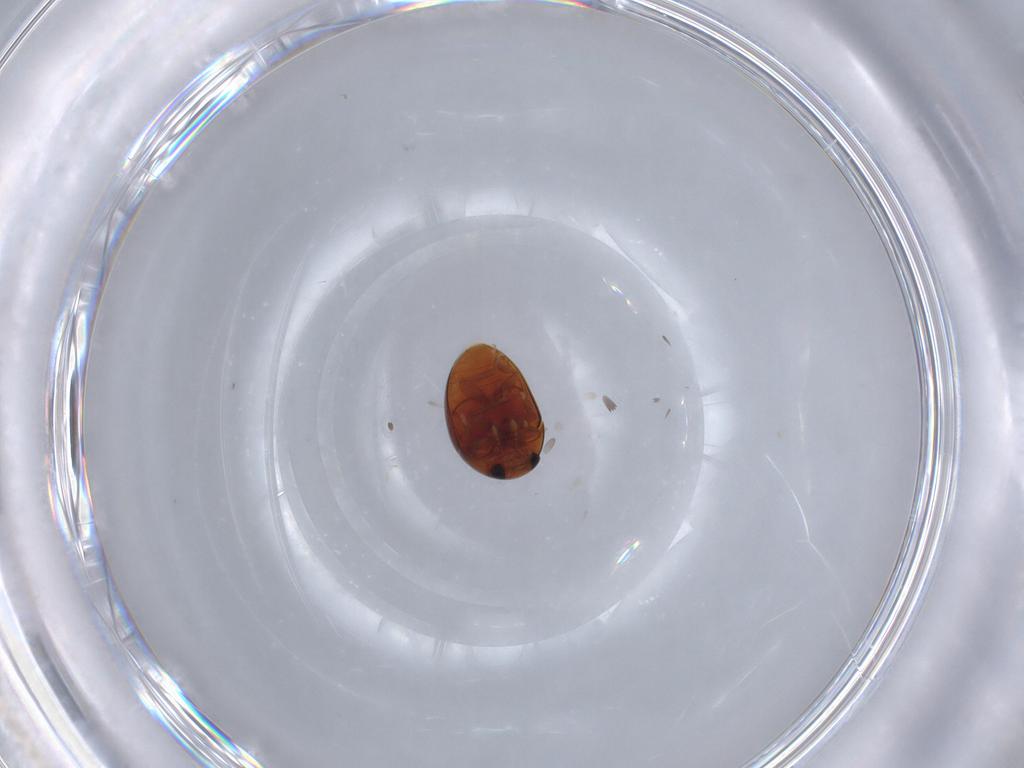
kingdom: Animalia
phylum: Arthropoda
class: Insecta
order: Coleoptera
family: Phalacridae
